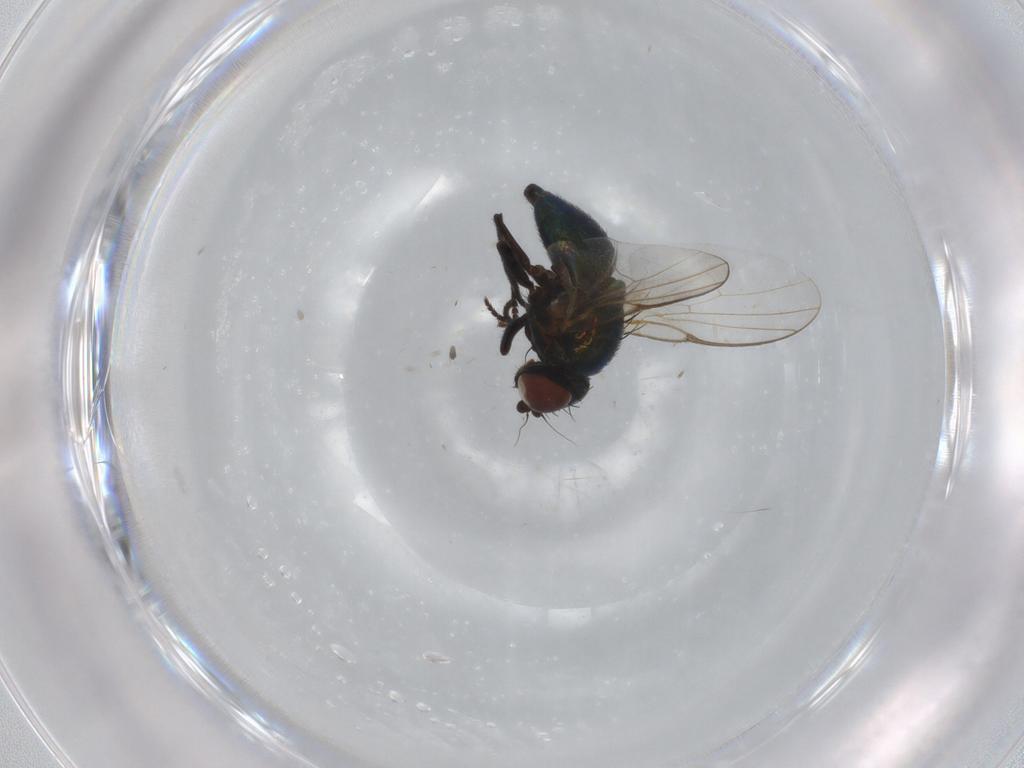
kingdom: Animalia
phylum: Arthropoda
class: Insecta
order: Diptera
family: Agromyzidae
